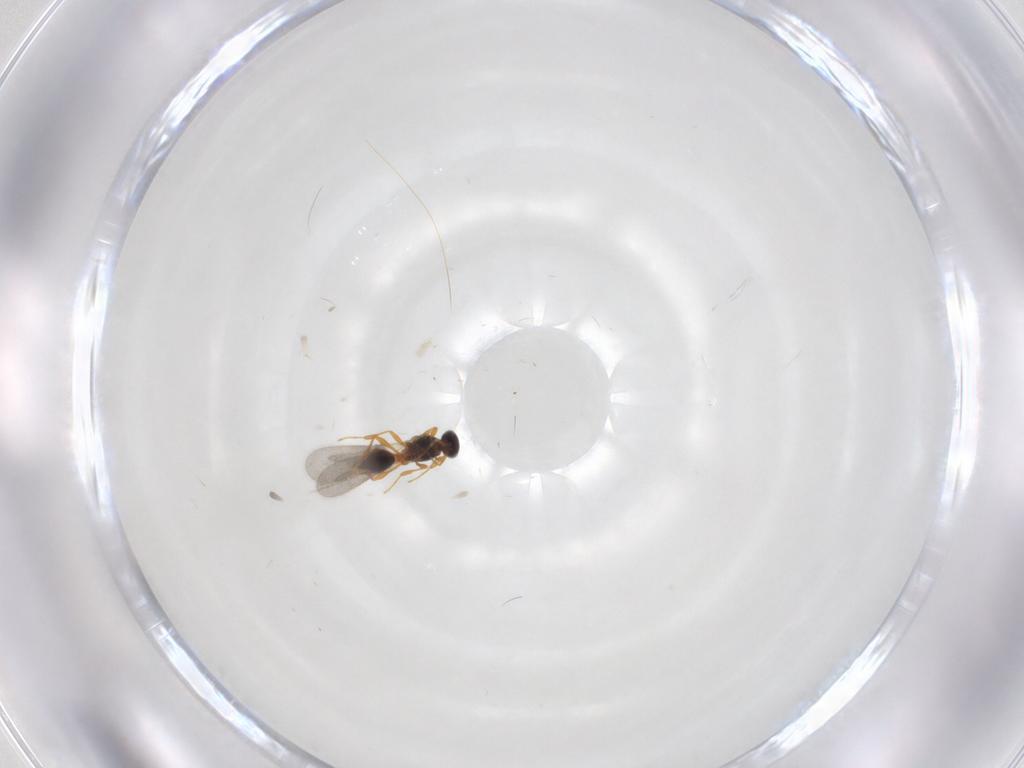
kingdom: Animalia
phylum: Arthropoda
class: Insecta
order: Hymenoptera
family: Platygastridae
